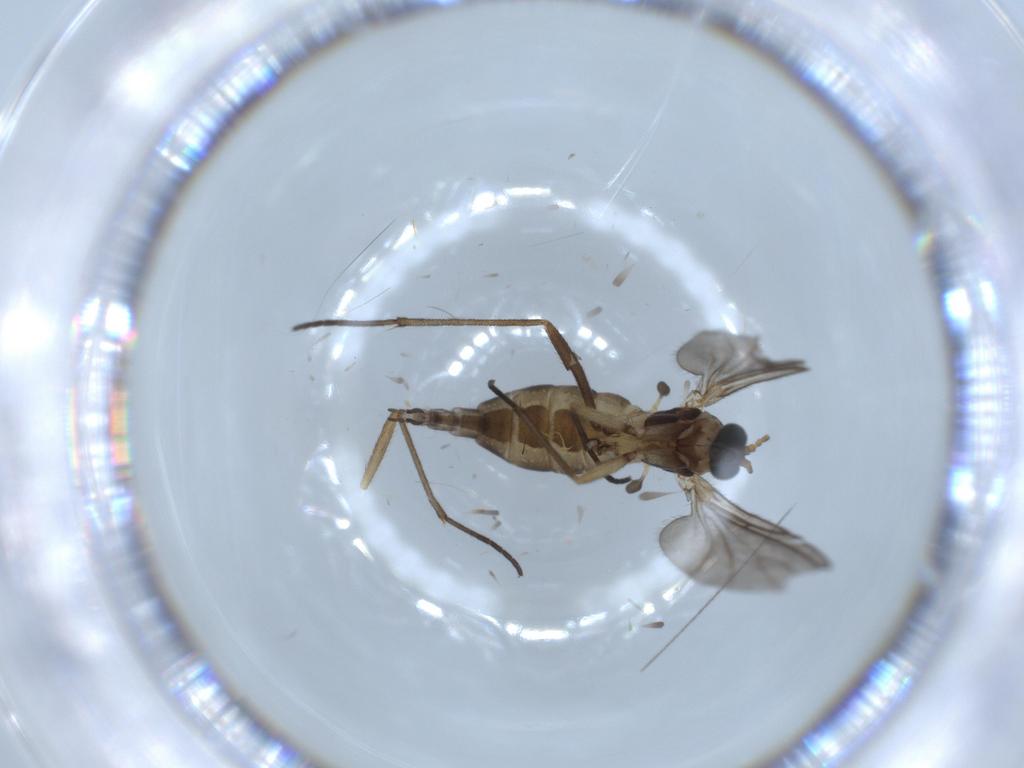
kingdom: Animalia
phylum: Arthropoda
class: Insecta
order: Diptera
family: Sciaridae
